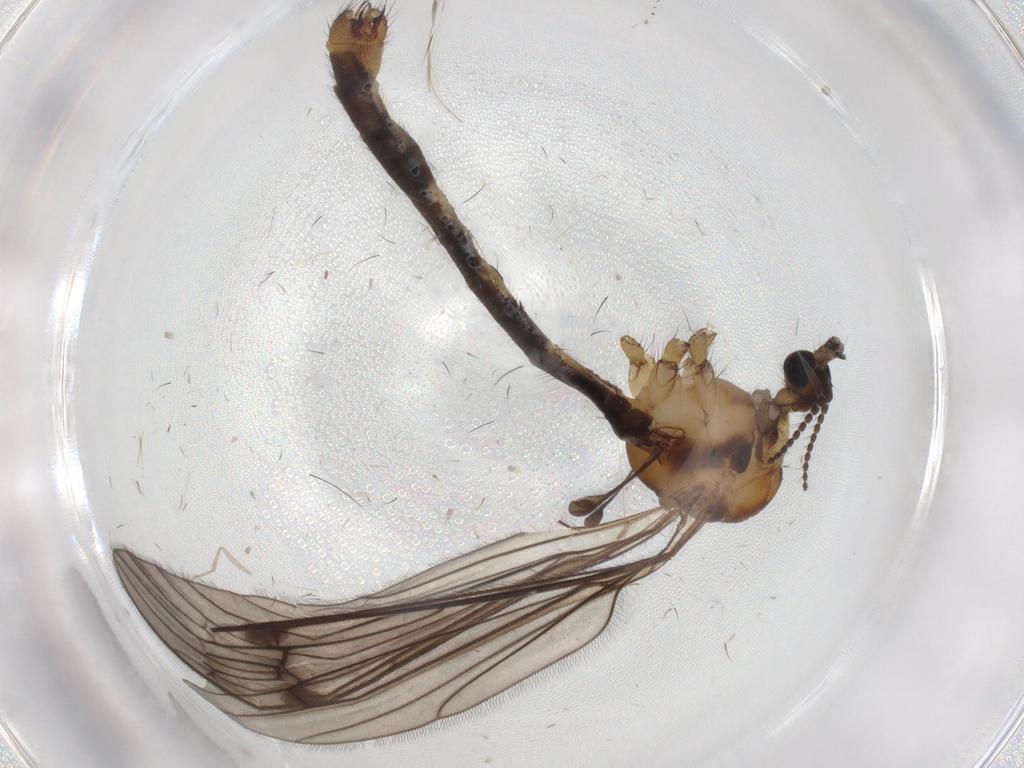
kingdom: Animalia
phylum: Arthropoda
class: Insecta
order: Diptera
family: Limoniidae
